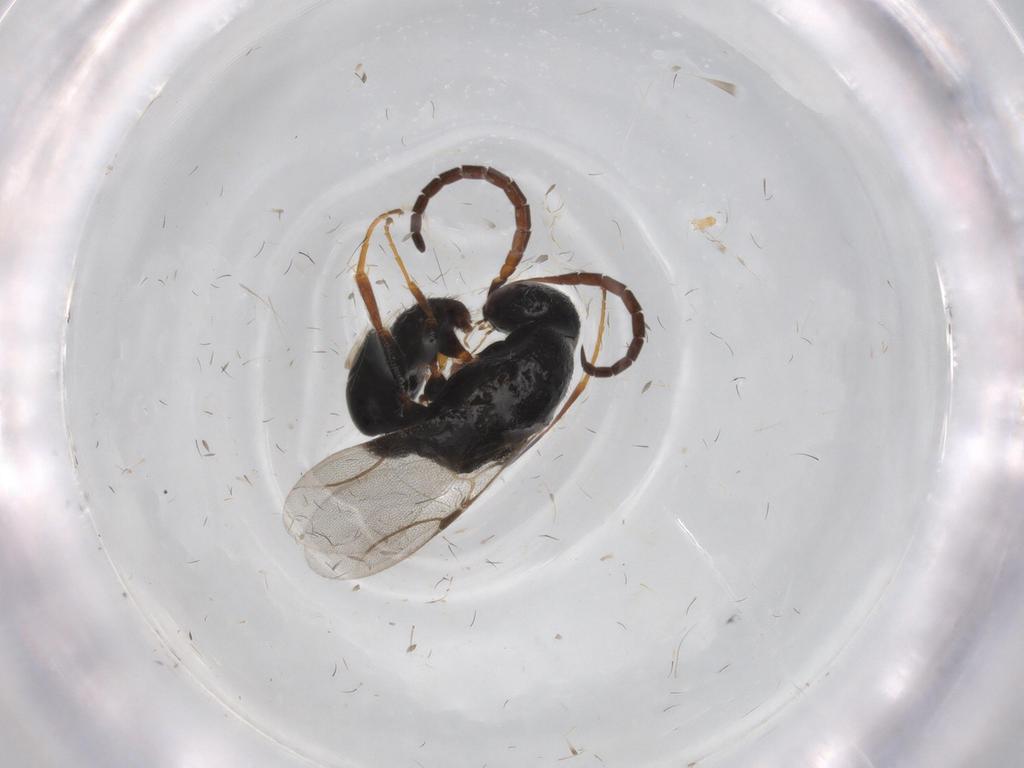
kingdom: Animalia
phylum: Arthropoda
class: Insecta
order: Hymenoptera
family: Bethylidae
